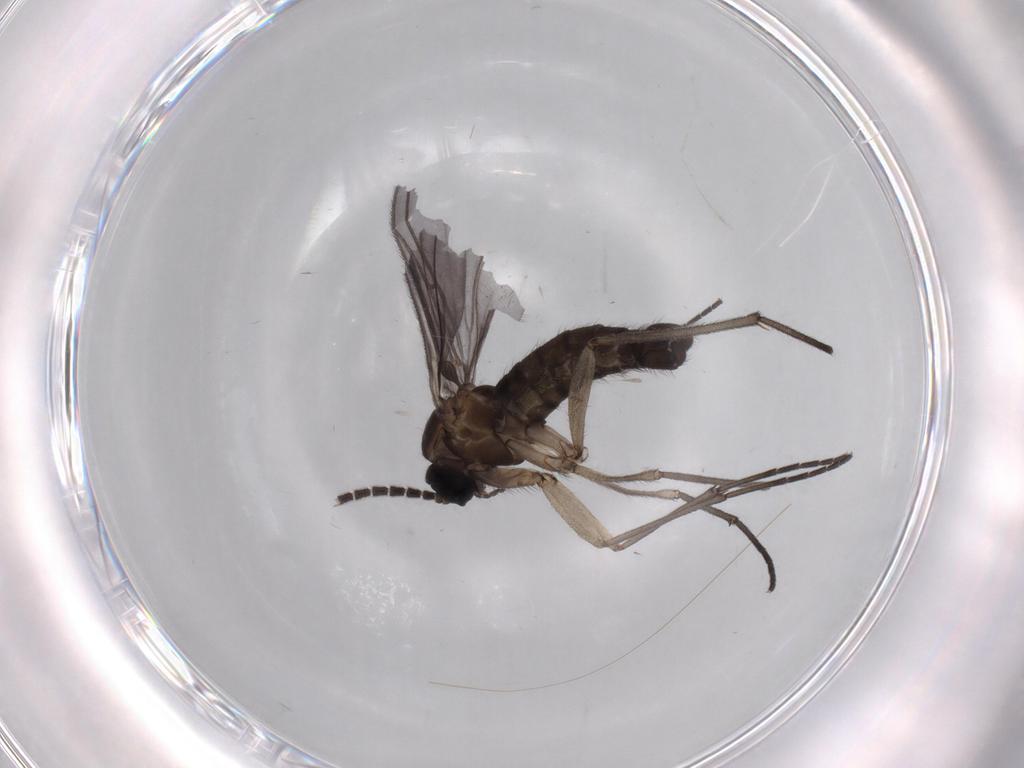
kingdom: Animalia
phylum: Arthropoda
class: Insecta
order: Diptera
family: Sciaridae
